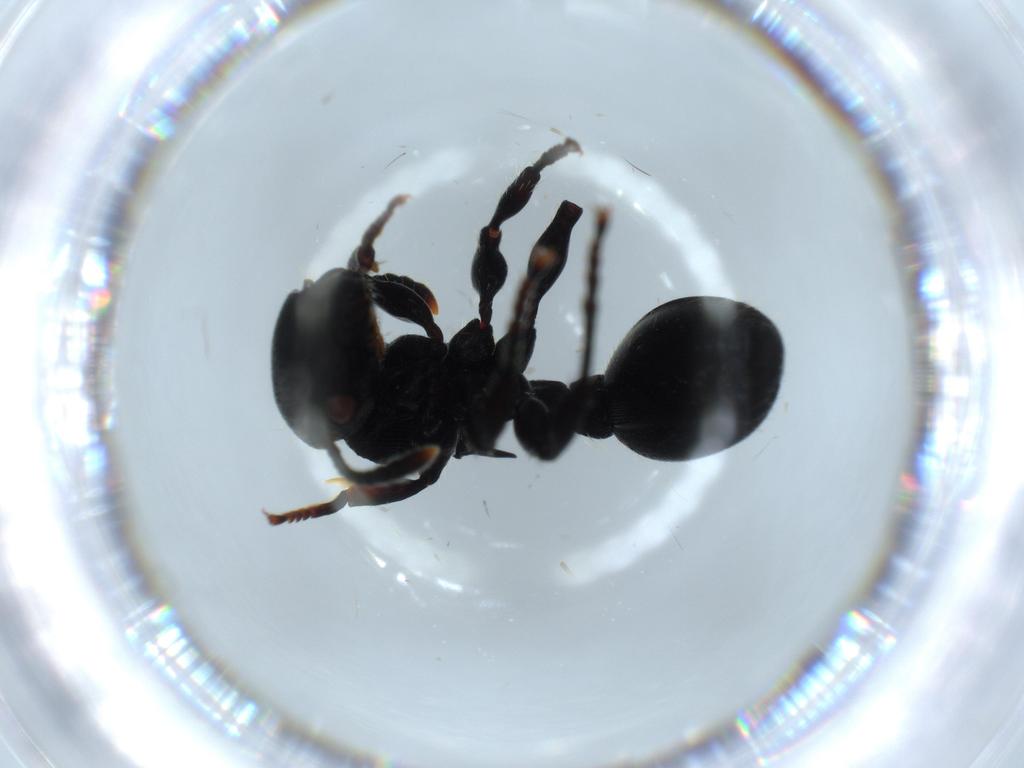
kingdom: Animalia
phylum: Arthropoda
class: Insecta
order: Hymenoptera
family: Formicidae
